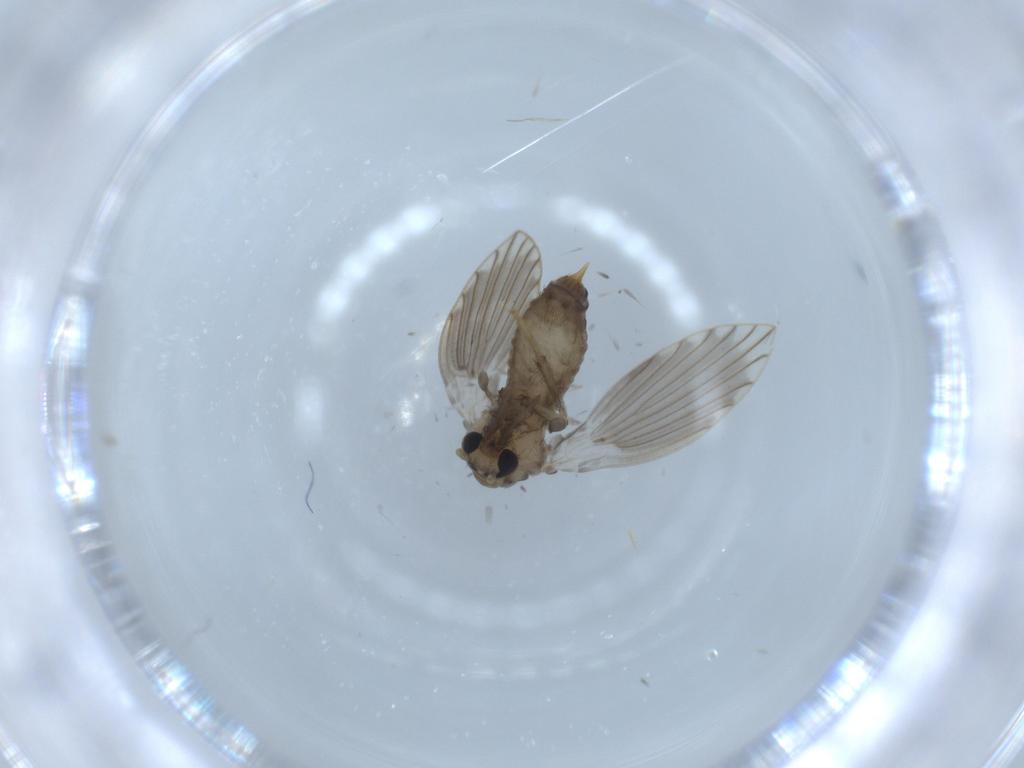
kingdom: Animalia
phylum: Arthropoda
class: Insecta
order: Diptera
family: Psychodidae
